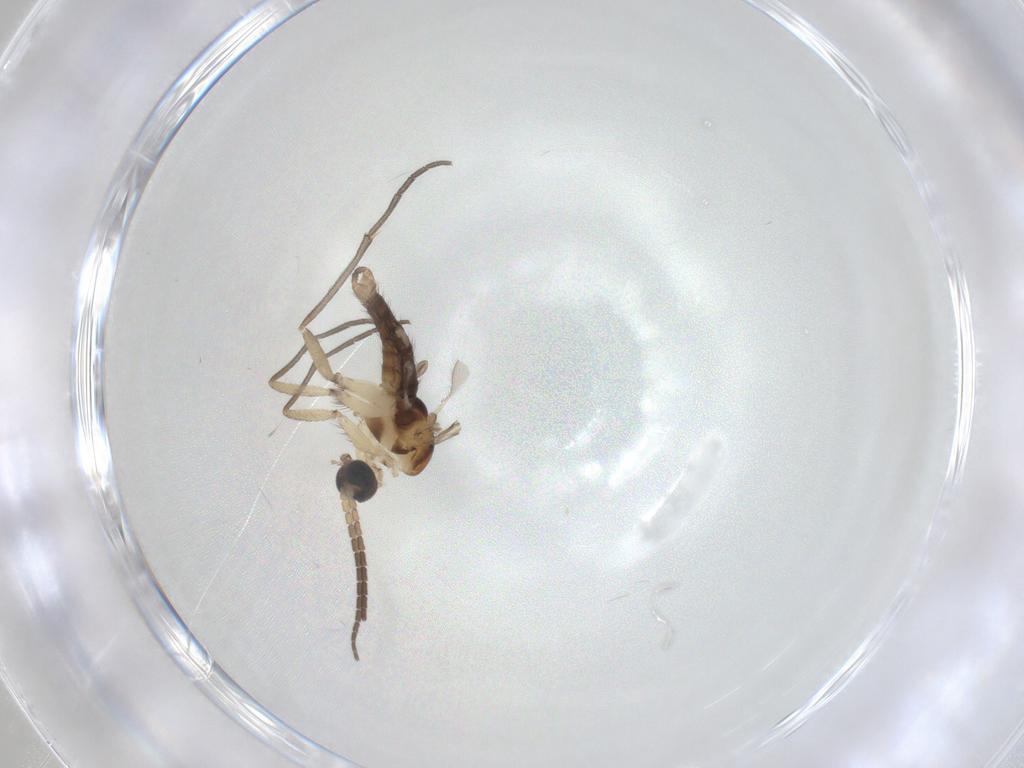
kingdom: Animalia
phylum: Arthropoda
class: Insecta
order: Diptera
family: Sciaridae
